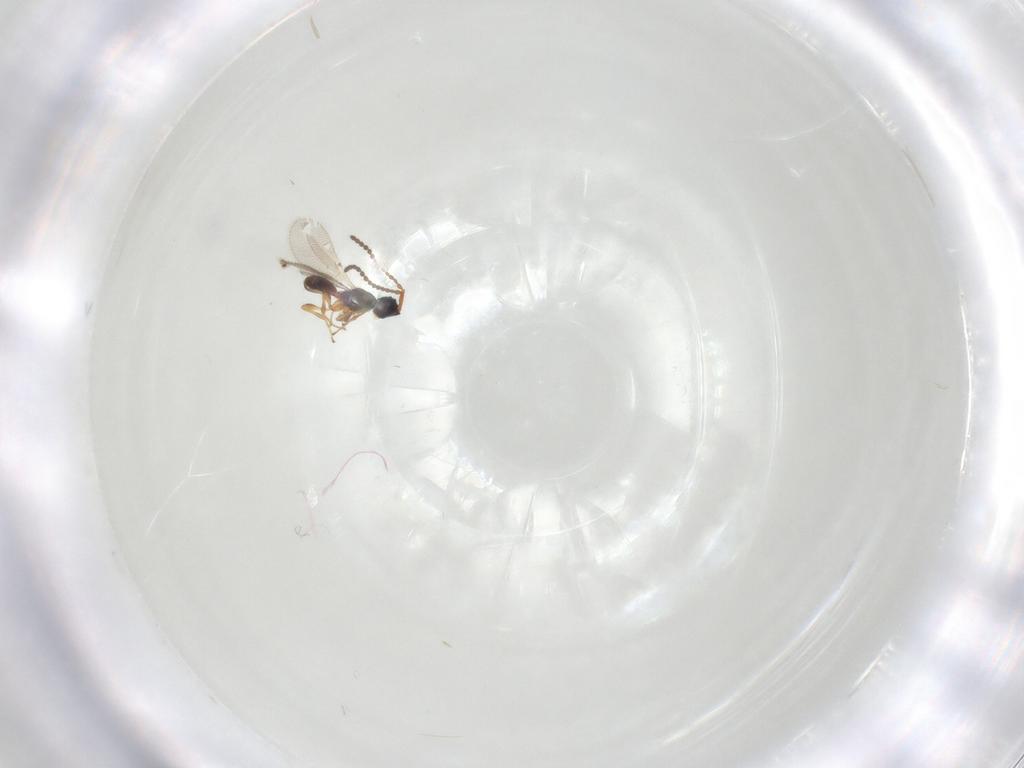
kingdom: Animalia
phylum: Arthropoda
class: Insecta
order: Hymenoptera
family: Diapriidae
